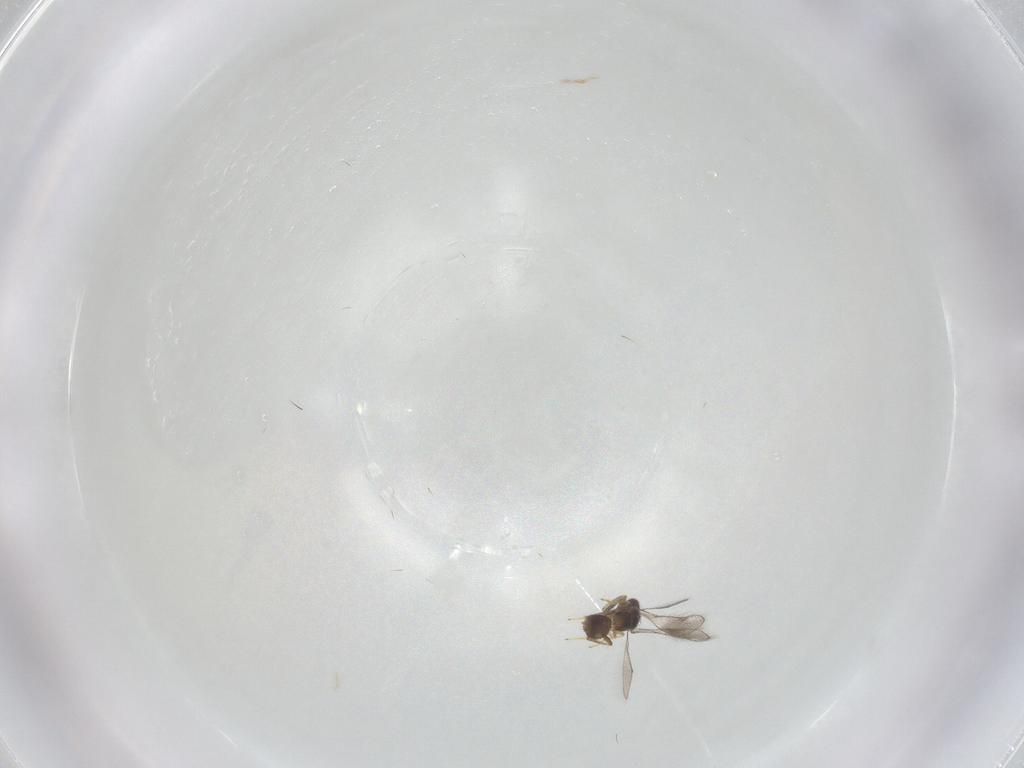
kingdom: Animalia
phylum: Arthropoda
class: Insecta
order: Hymenoptera
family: Pteromalidae
